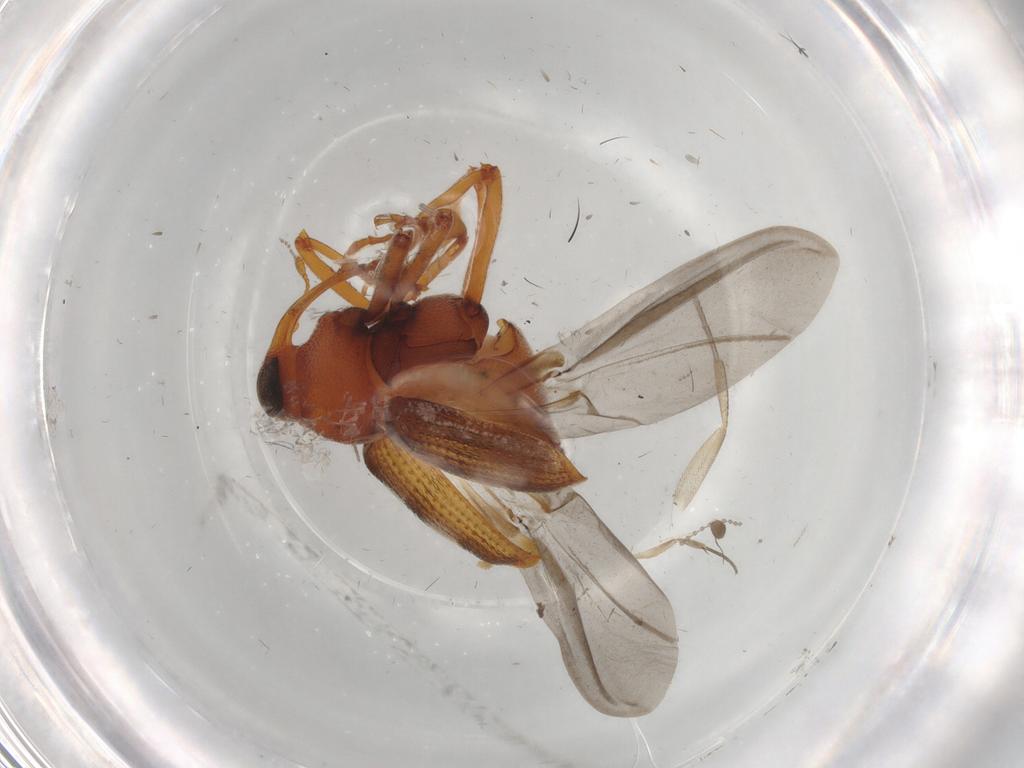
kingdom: Animalia
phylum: Arthropoda
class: Insecta
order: Coleoptera
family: Curculionidae
